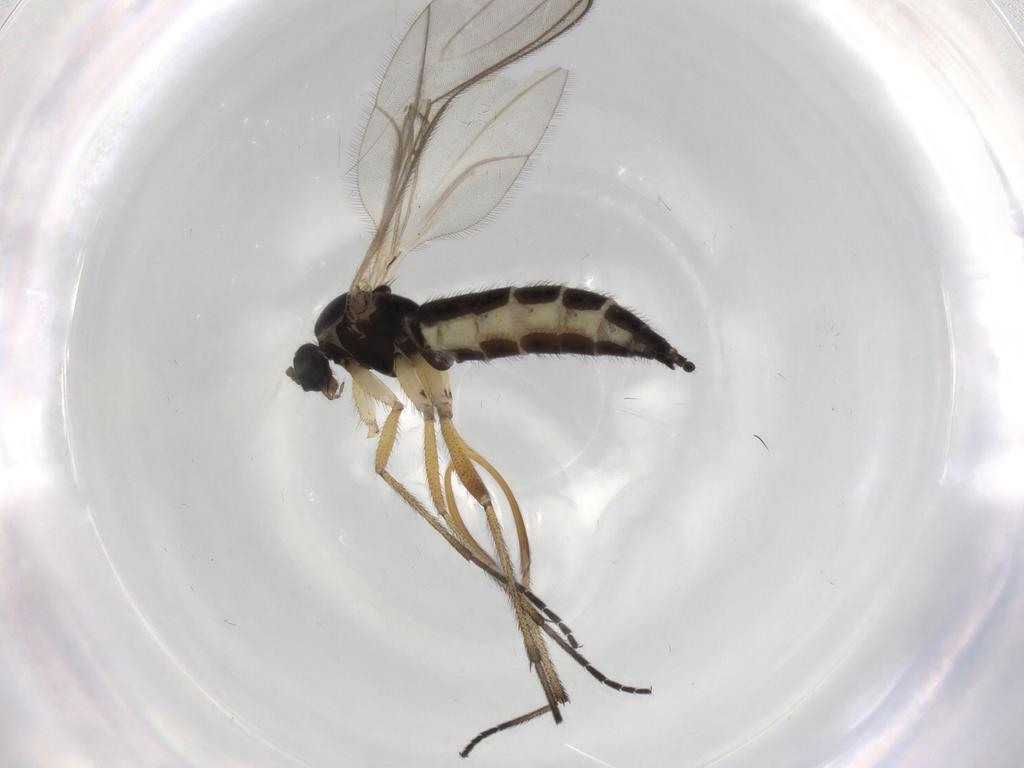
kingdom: Animalia
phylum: Arthropoda
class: Insecta
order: Diptera
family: Sciaridae
